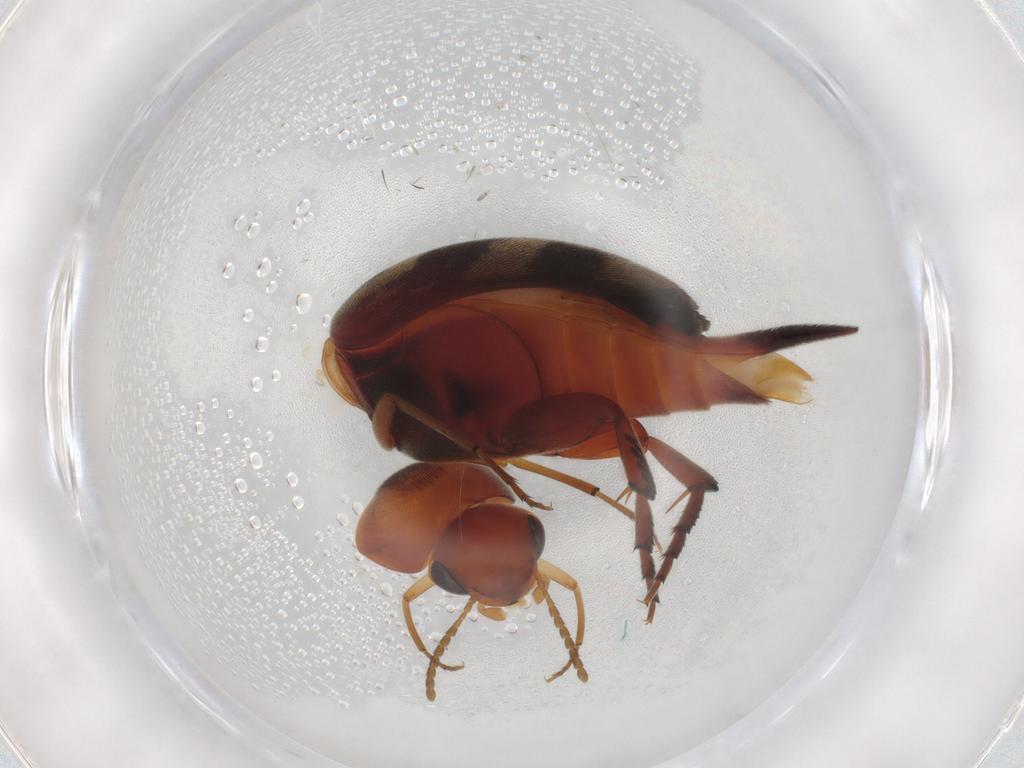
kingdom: Animalia
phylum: Arthropoda
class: Insecta
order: Coleoptera
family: Mordellidae
